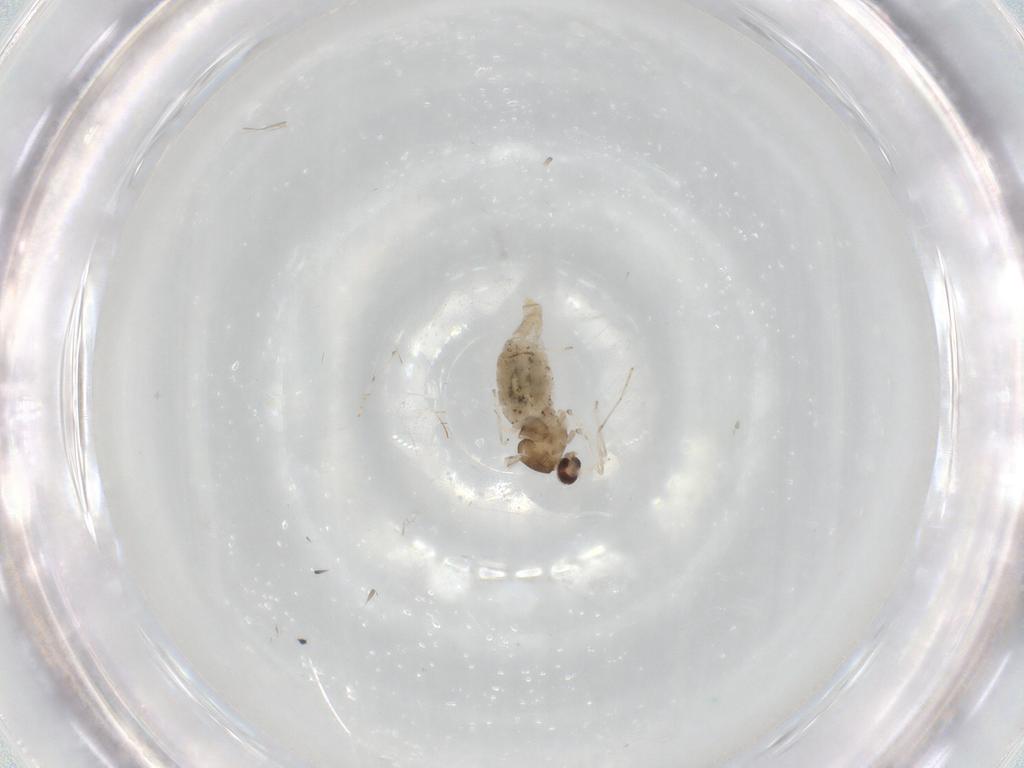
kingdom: Animalia
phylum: Arthropoda
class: Insecta
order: Diptera
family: Cecidomyiidae
